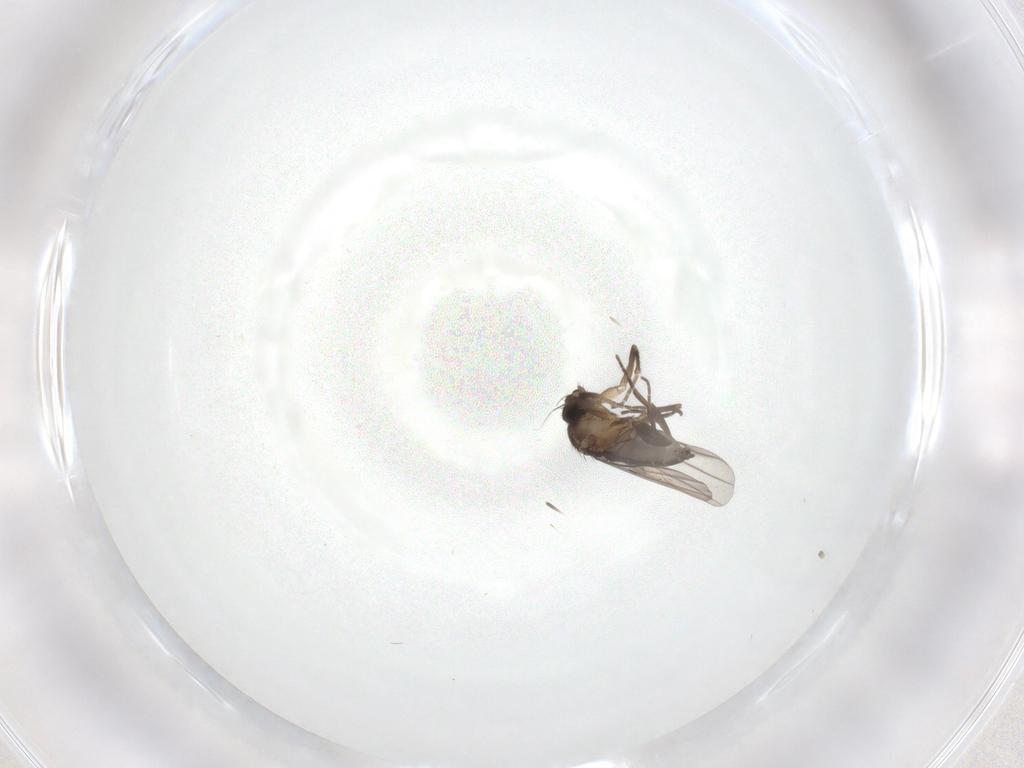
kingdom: Animalia
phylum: Arthropoda
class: Insecta
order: Diptera
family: Phoridae
